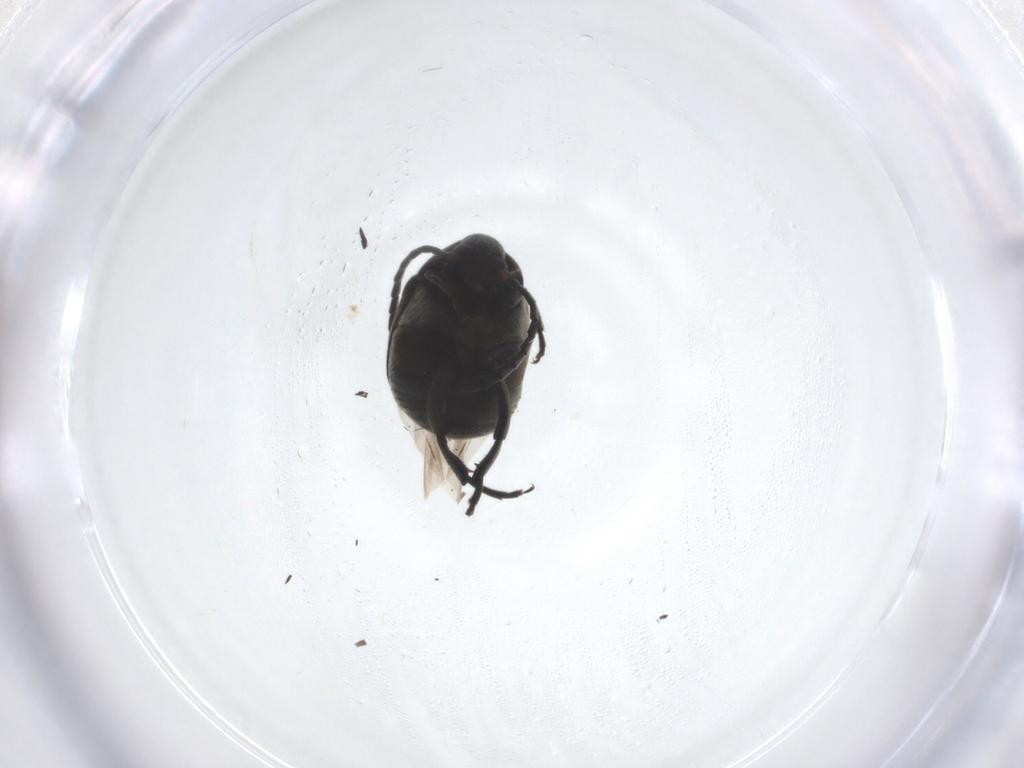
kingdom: Animalia
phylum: Arthropoda
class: Insecta
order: Coleoptera
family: Chrysomelidae
